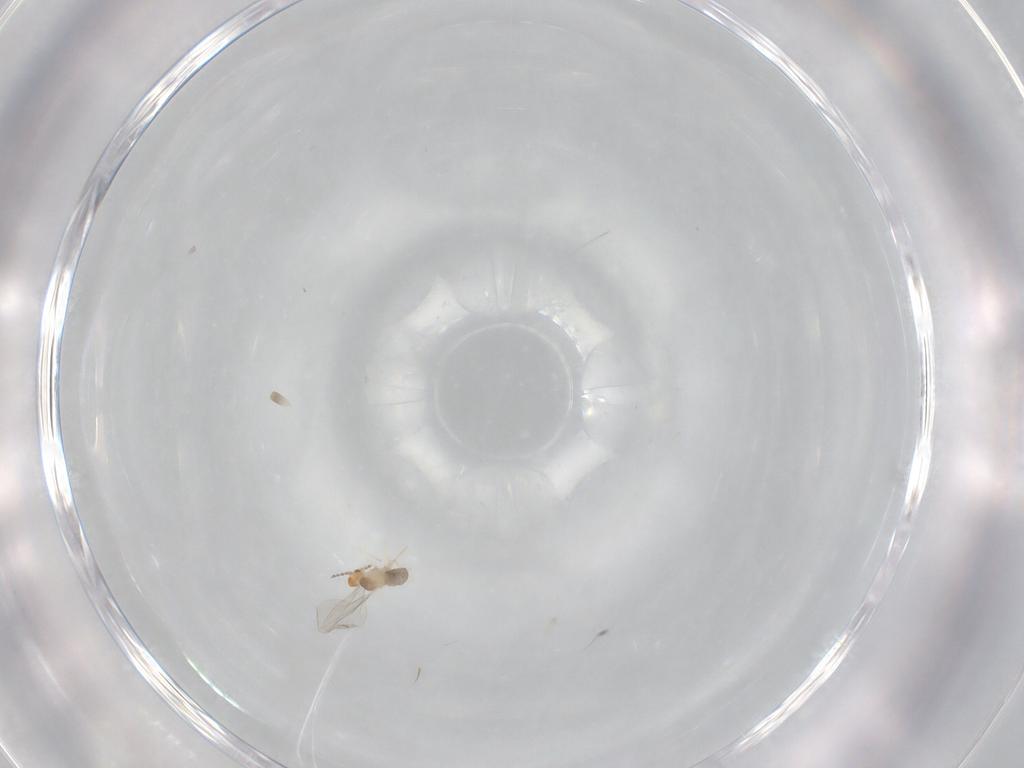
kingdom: Animalia
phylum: Arthropoda
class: Insecta
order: Diptera
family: Cecidomyiidae
